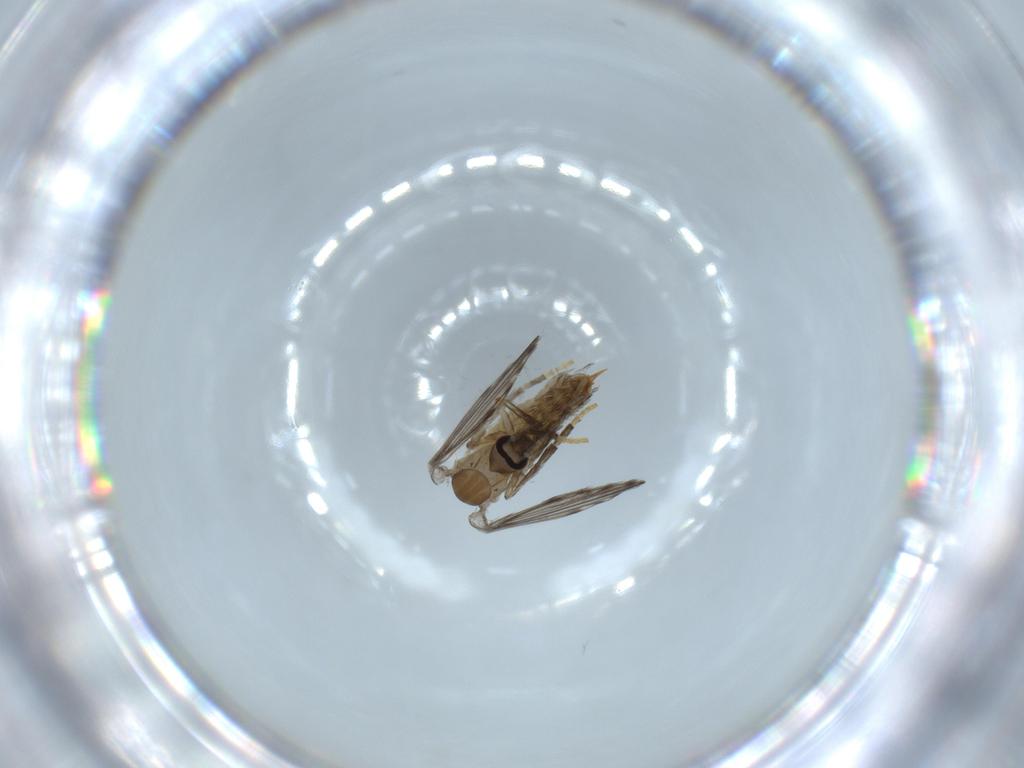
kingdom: Animalia
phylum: Arthropoda
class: Insecta
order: Diptera
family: Psychodidae
